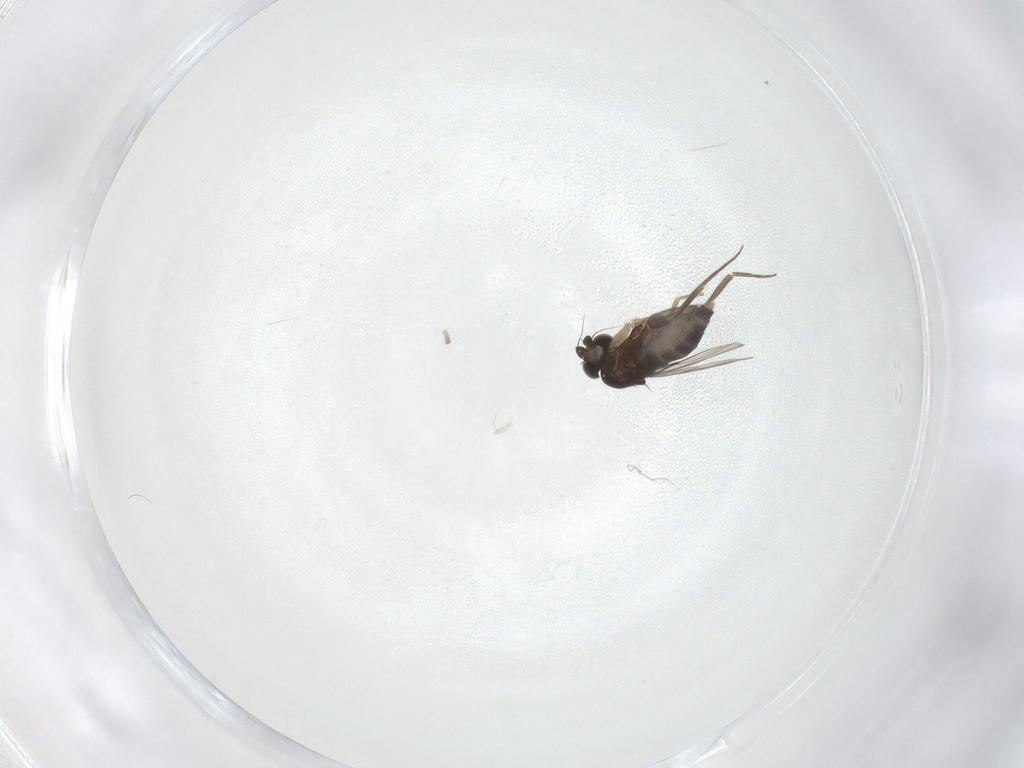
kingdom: Animalia
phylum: Arthropoda
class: Insecta
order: Diptera
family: Phoridae
